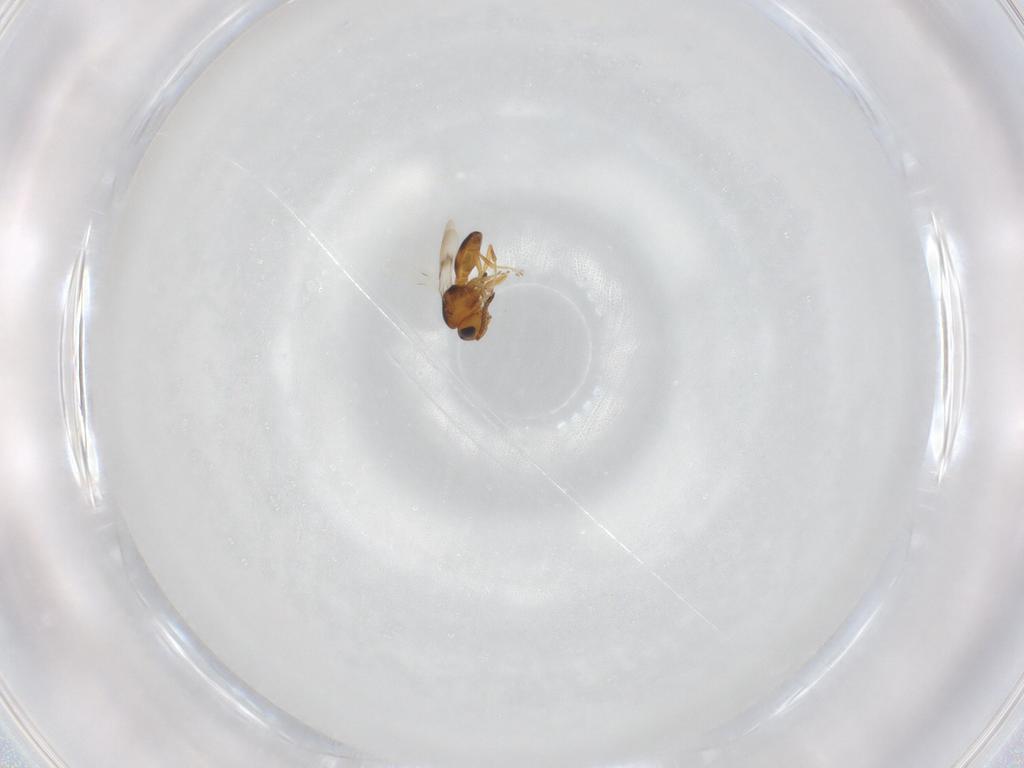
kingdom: Animalia
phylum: Arthropoda
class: Insecta
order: Hymenoptera
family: Scelionidae
